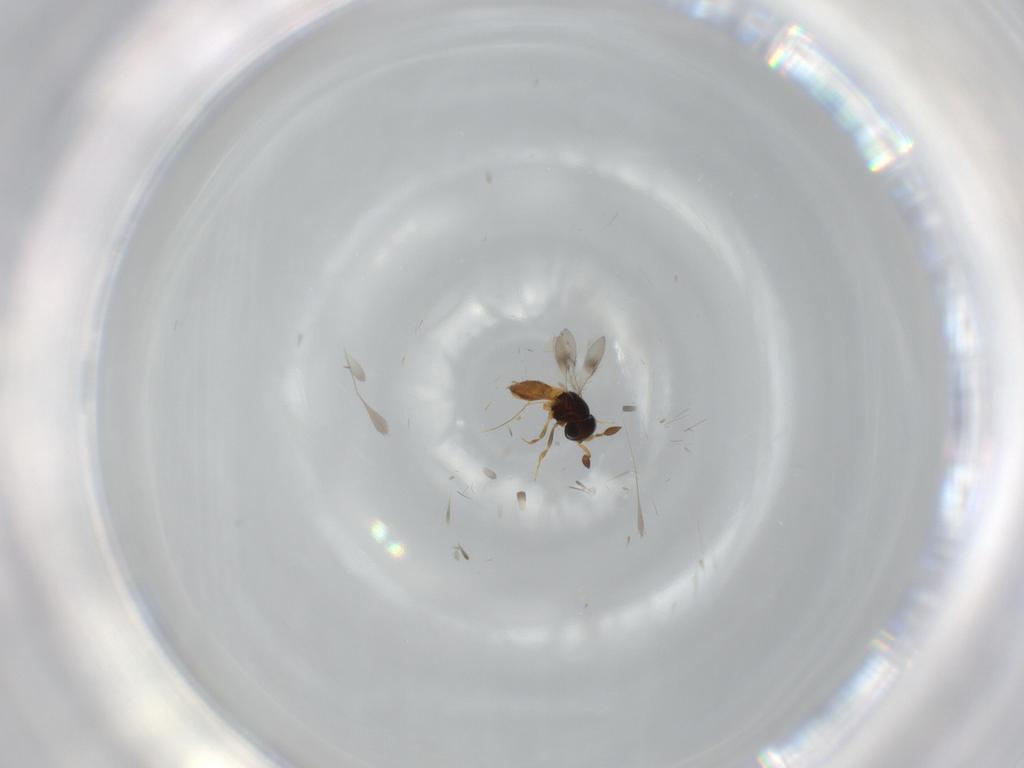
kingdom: Animalia
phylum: Arthropoda
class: Insecta
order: Hymenoptera
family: Scelionidae
